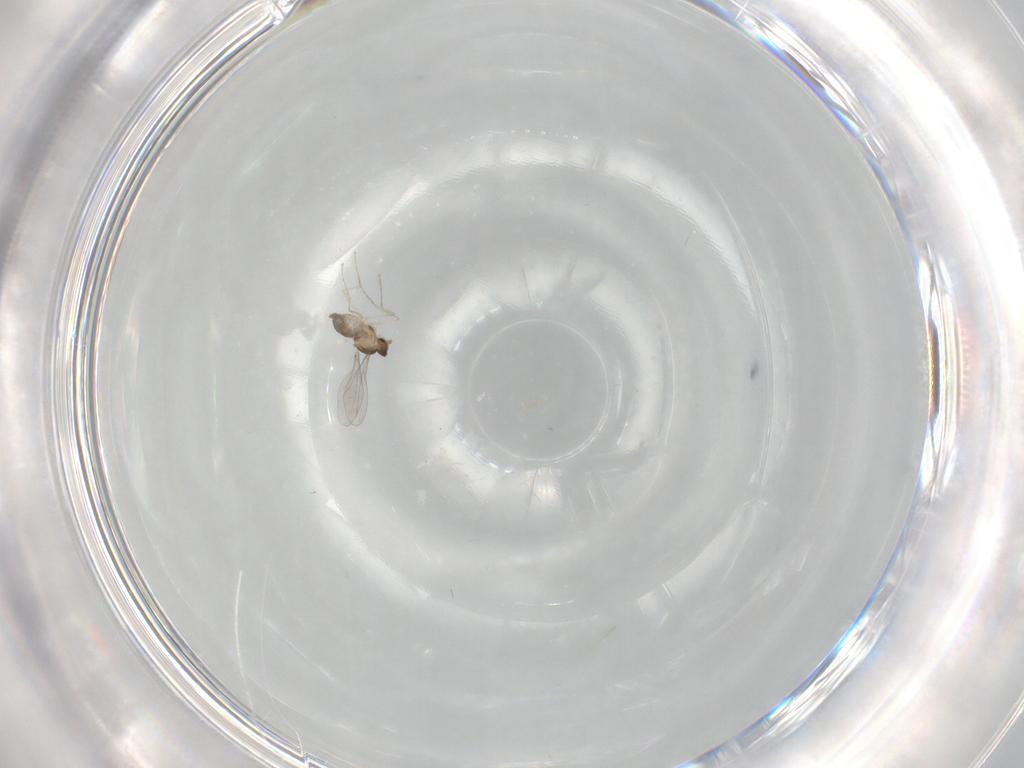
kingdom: Animalia
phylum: Arthropoda
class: Insecta
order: Diptera
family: Cecidomyiidae
